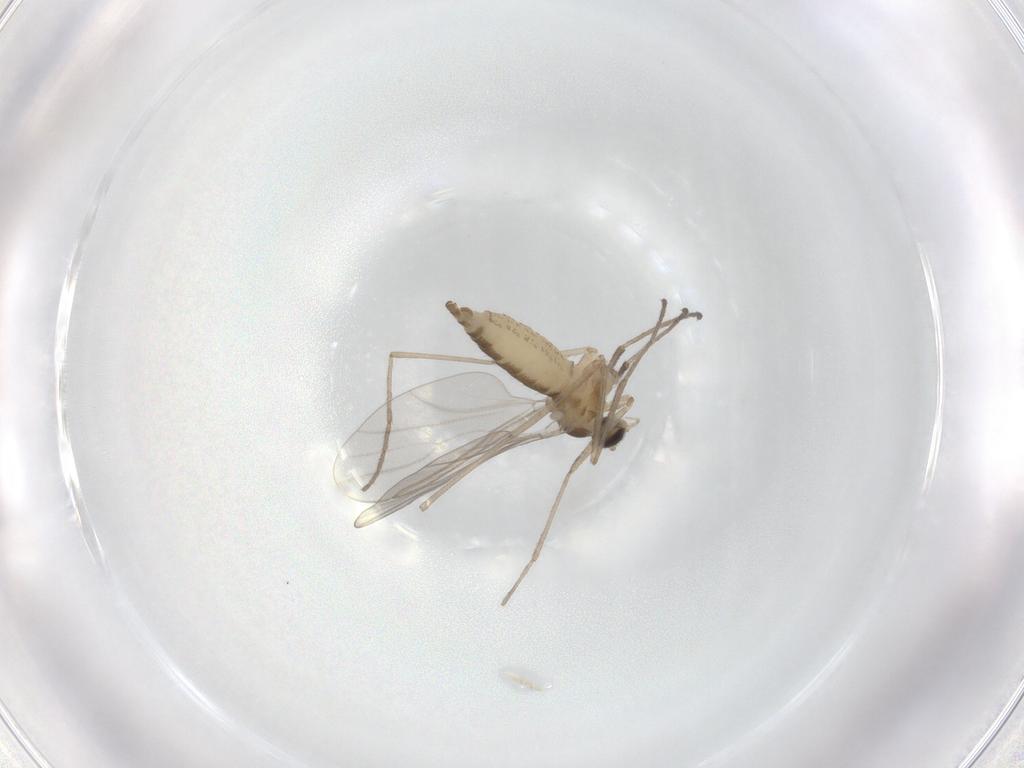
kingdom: Animalia
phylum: Arthropoda
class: Insecta
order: Diptera
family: Cecidomyiidae
